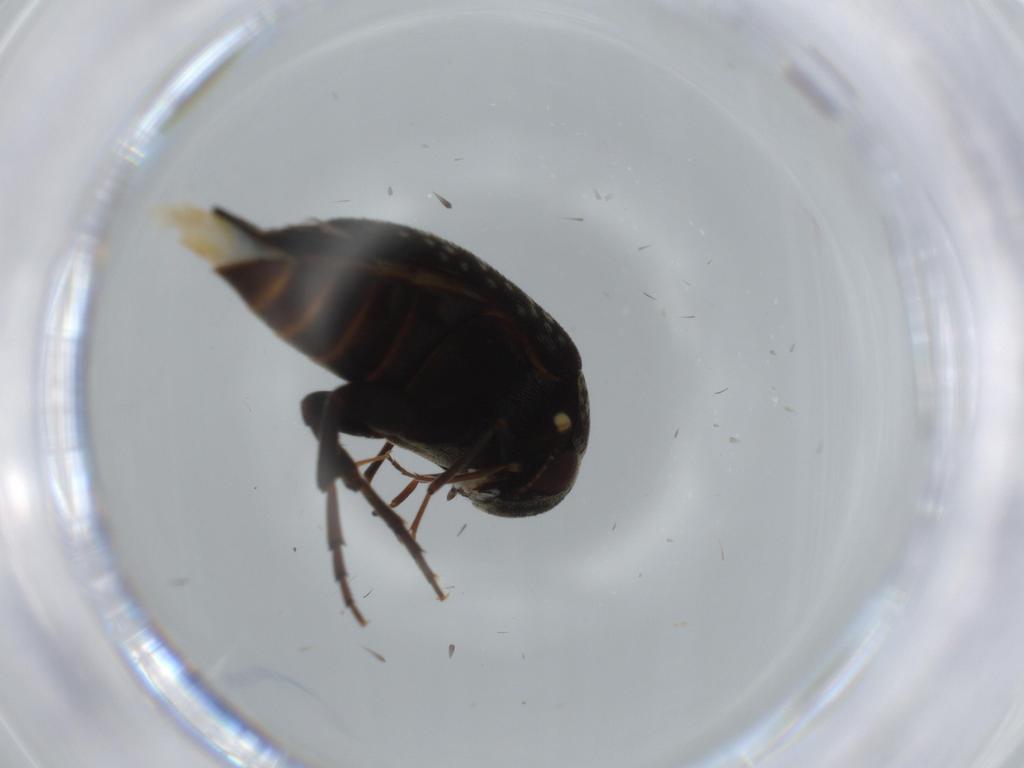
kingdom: Animalia
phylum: Arthropoda
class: Insecta
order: Coleoptera
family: Mordellidae
